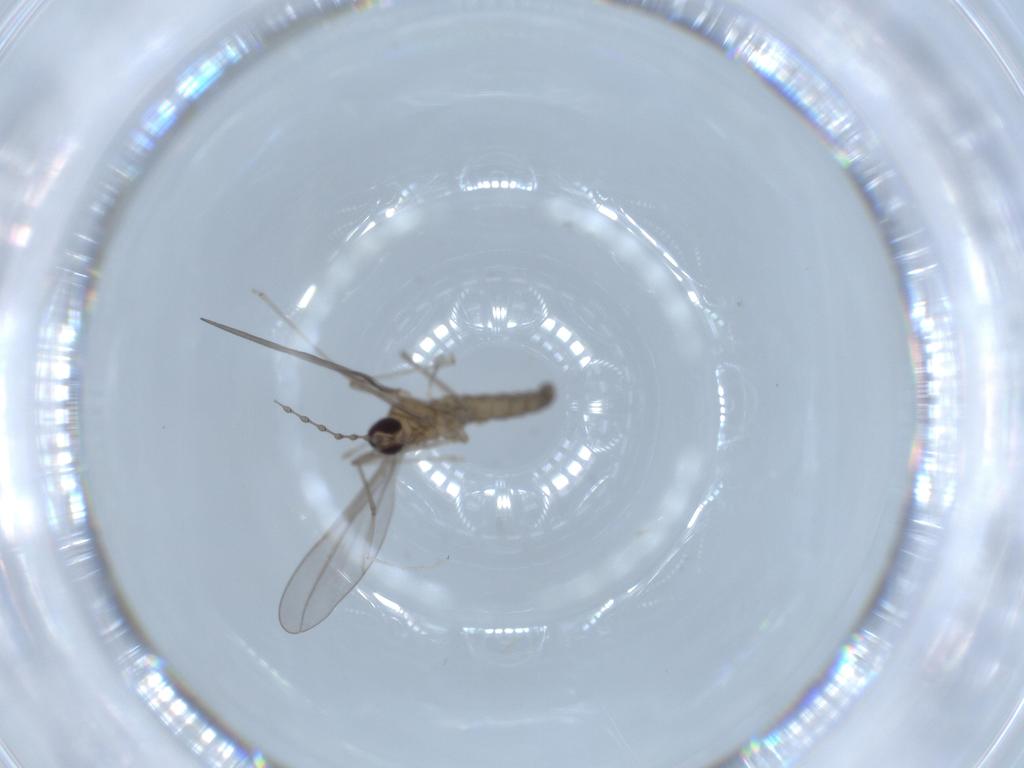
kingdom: Animalia
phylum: Arthropoda
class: Insecta
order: Diptera
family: Cecidomyiidae
